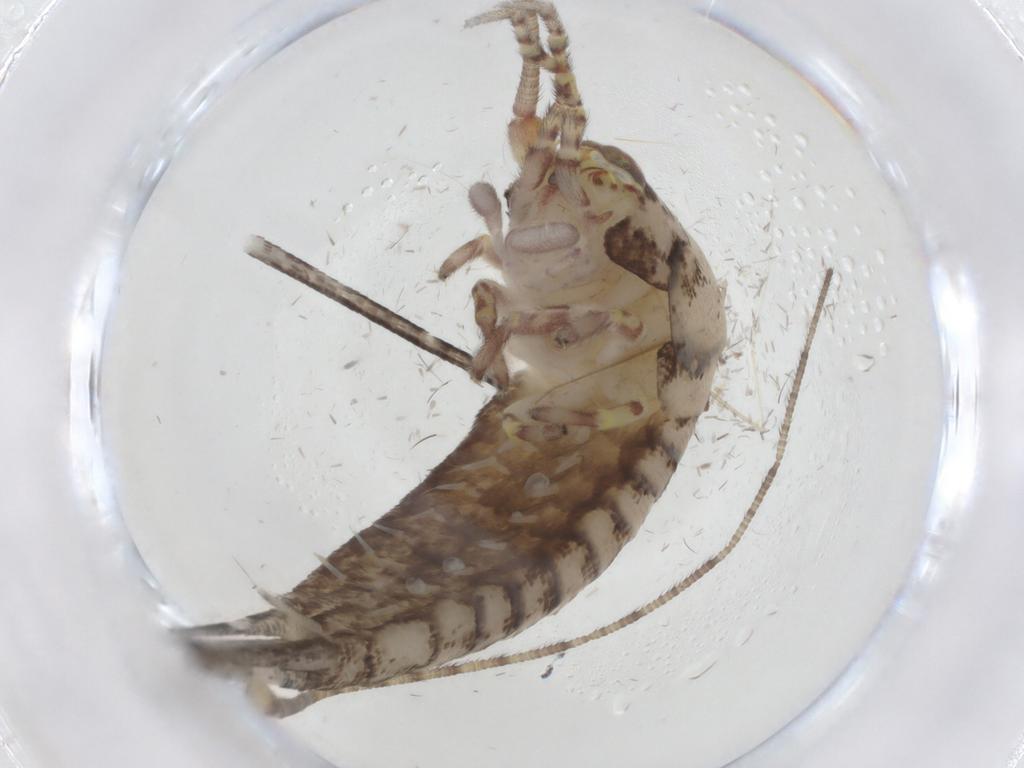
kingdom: Animalia
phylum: Arthropoda
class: Insecta
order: Archaeognatha
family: Machilidae
